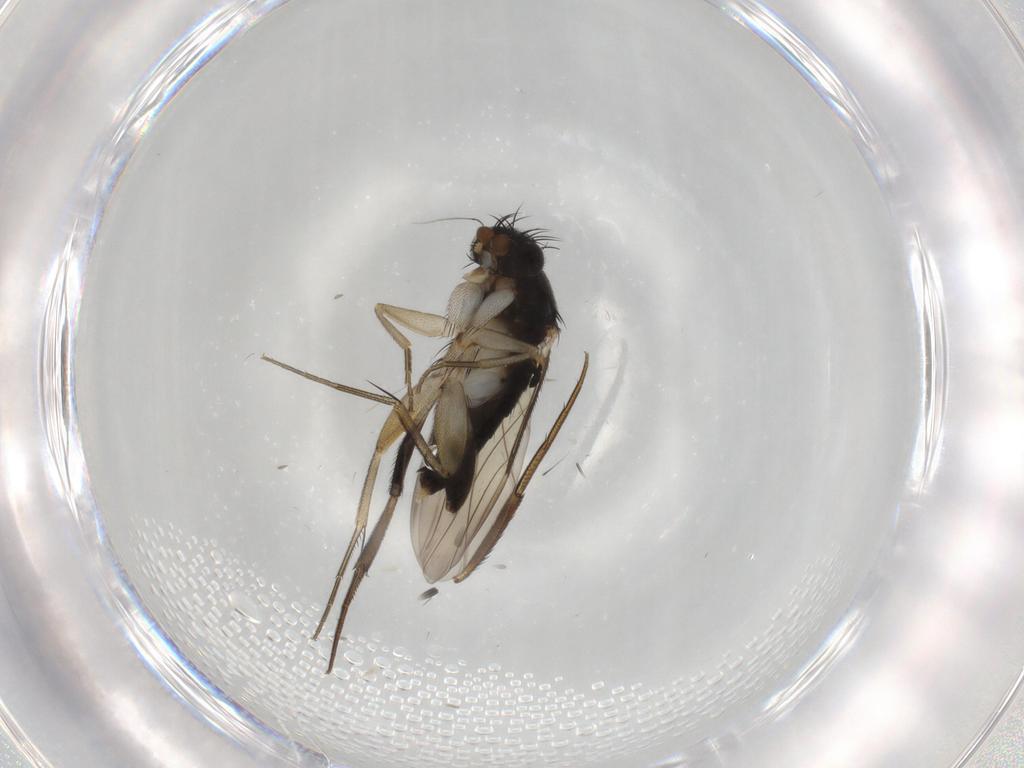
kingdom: Animalia
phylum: Arthropoda
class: Insecta
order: Diptera
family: Phoridae
